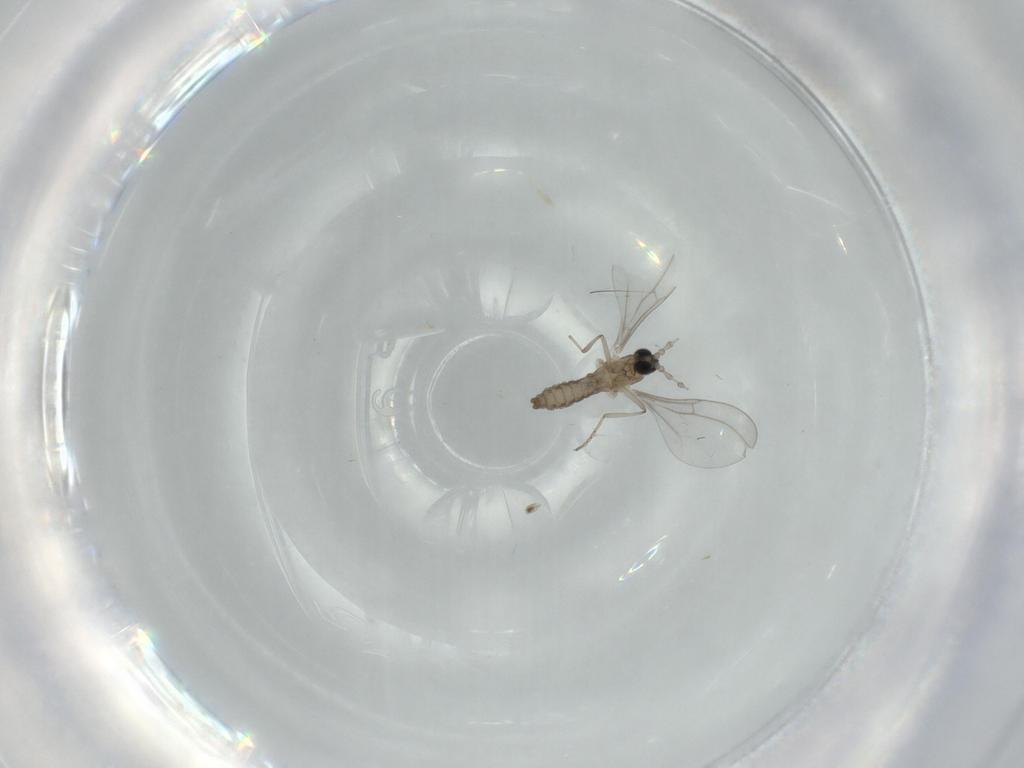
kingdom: Animalia
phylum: Arthropoda
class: Insecta
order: Diptera
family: Cecidomyiidae
